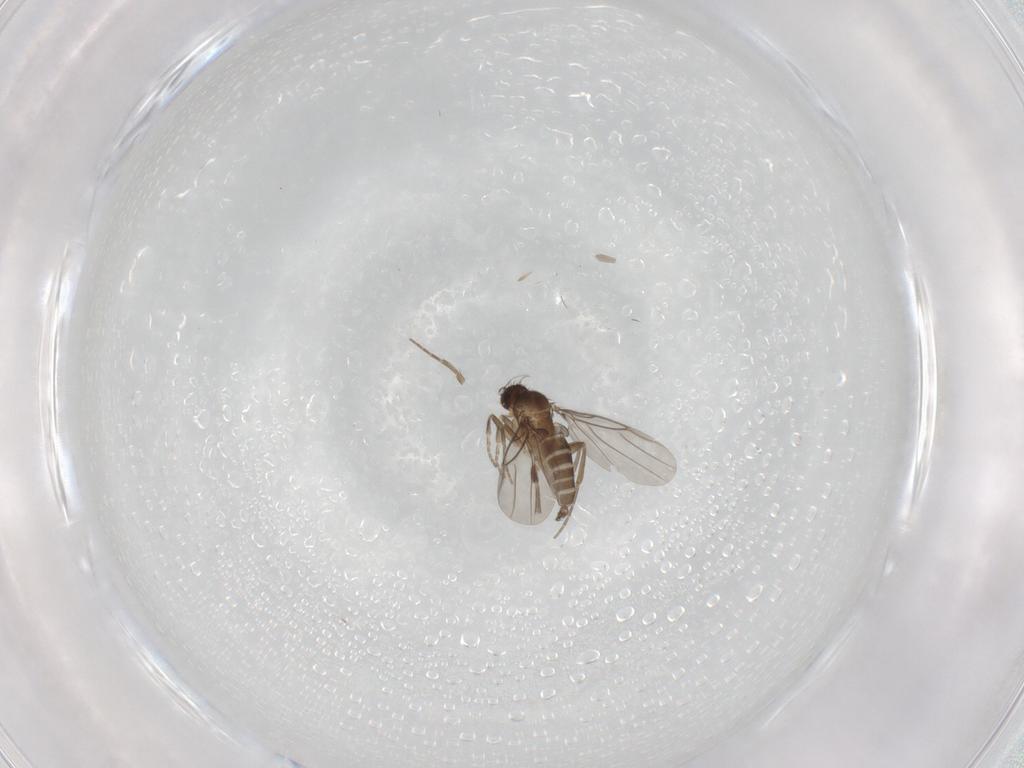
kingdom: Animalia
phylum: Arthropoda
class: Insecta
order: Diptera
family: Limoniidae
